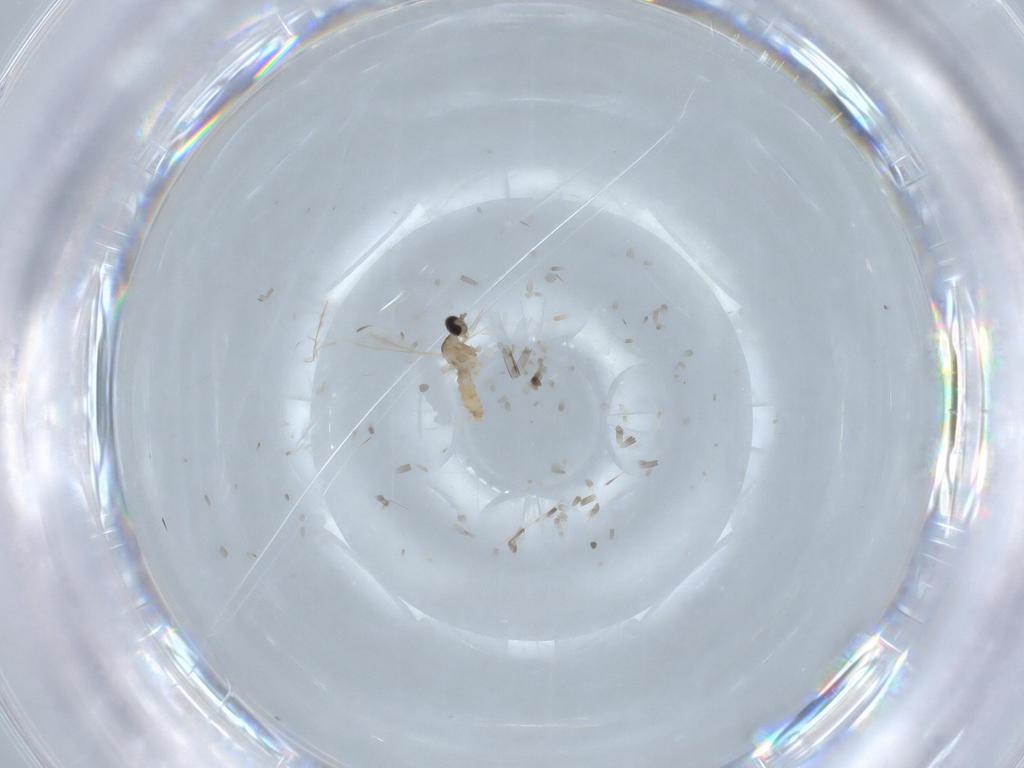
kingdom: Animalia
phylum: Arthropoda
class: Insecta
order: Diptera
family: Cecidomyiidae
